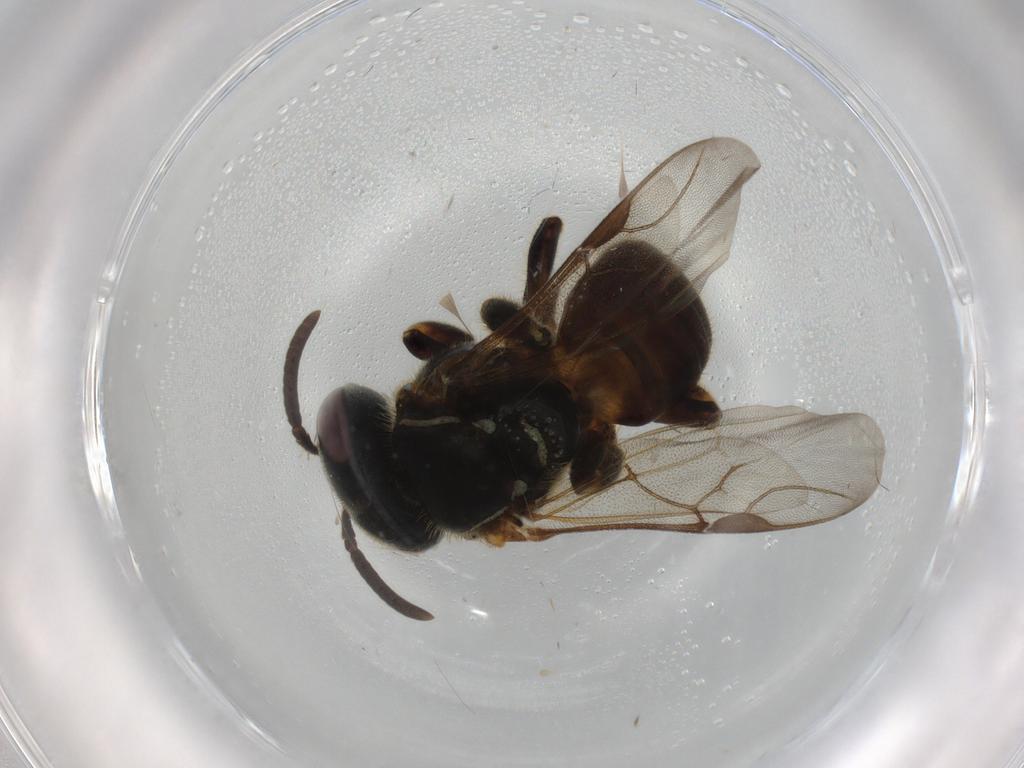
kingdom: Animalia
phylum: Arthropoda
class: Insecta
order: Hymenoptera
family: Apidae
